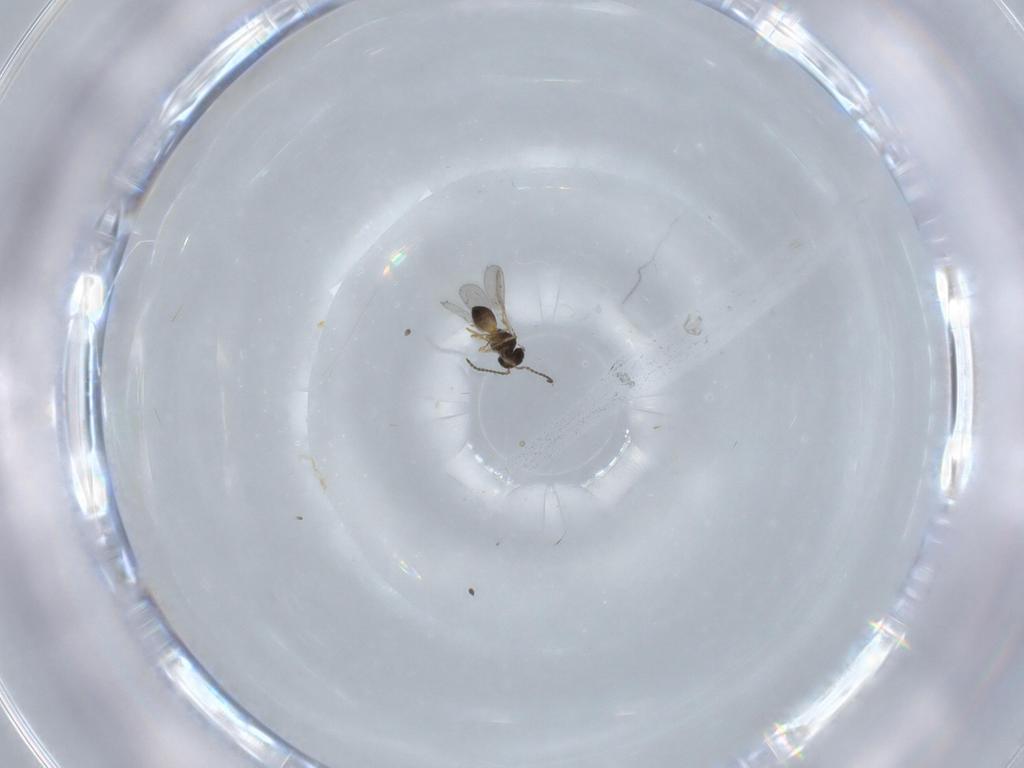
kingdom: Animalia
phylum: Arthropoda
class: Insecta
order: Hymenoptera
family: Scelionidae
